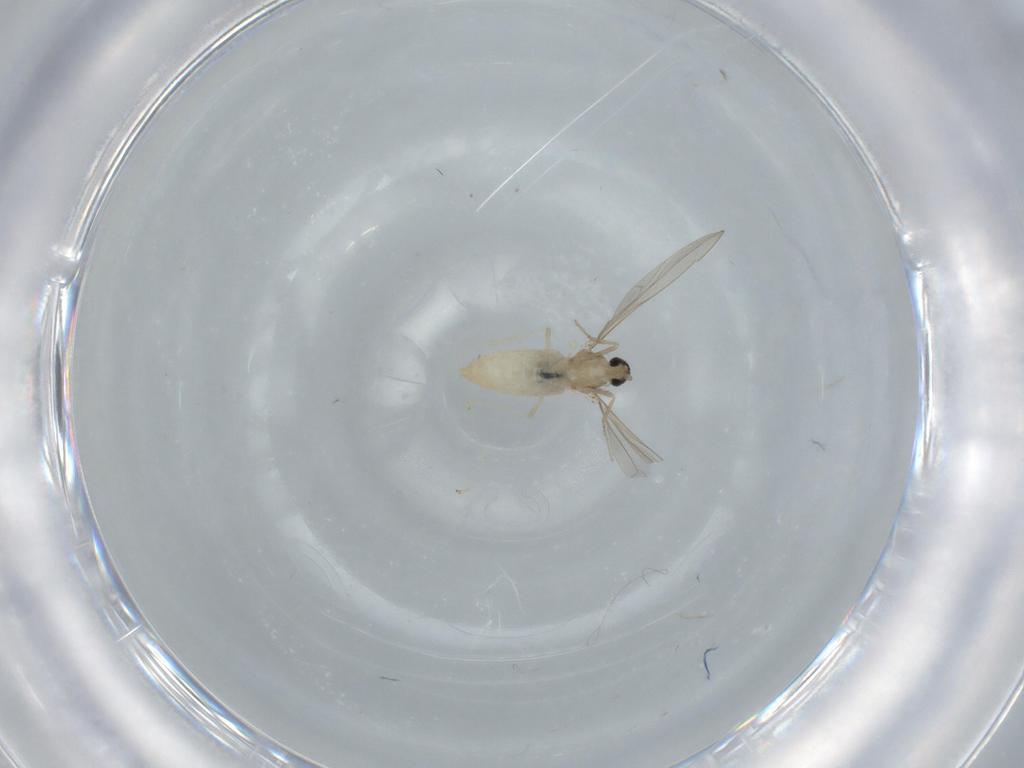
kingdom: Animalia
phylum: Arthropoda
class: Insecta
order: Diptera
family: Cecidomyiidae
